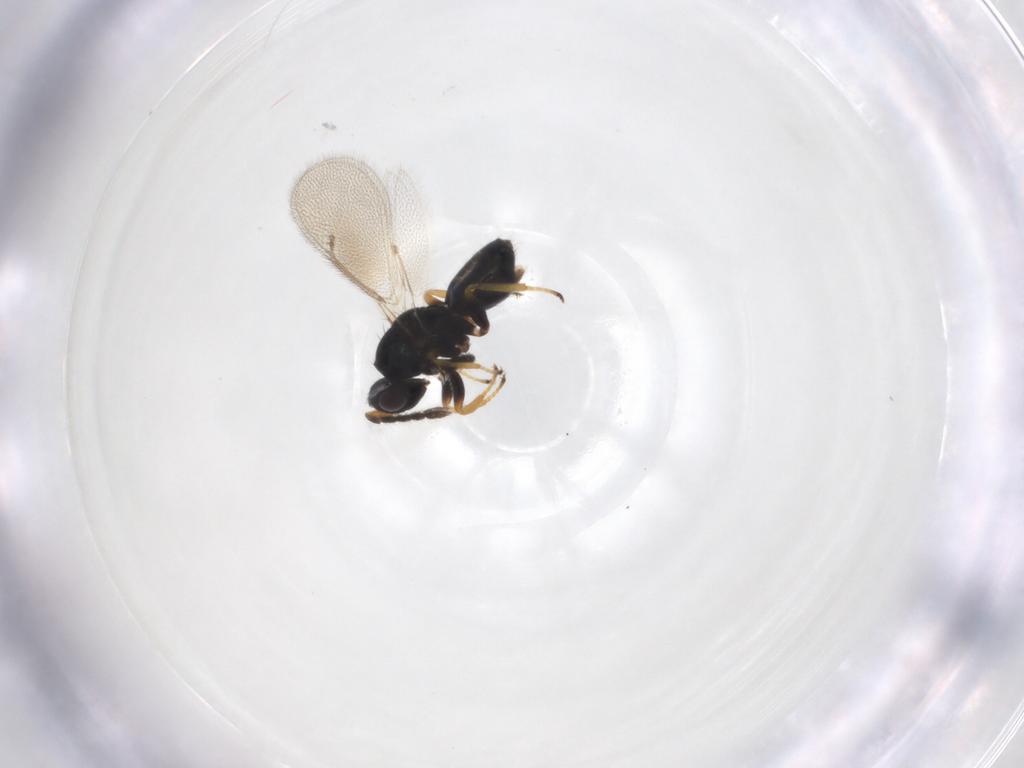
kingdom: Animalia
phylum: Arthropoda
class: Insecta
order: Hymenoptera
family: Eulophidae
